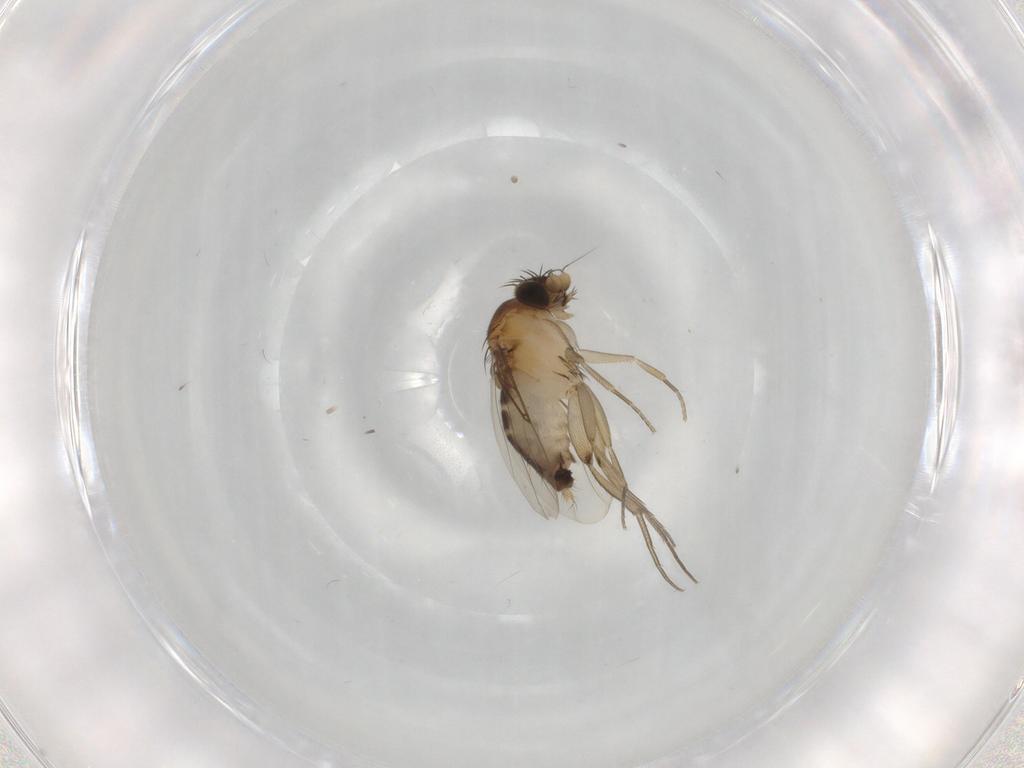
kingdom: Animalia
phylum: Arthropoda
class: Insecta
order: Diptera
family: Phoridae
